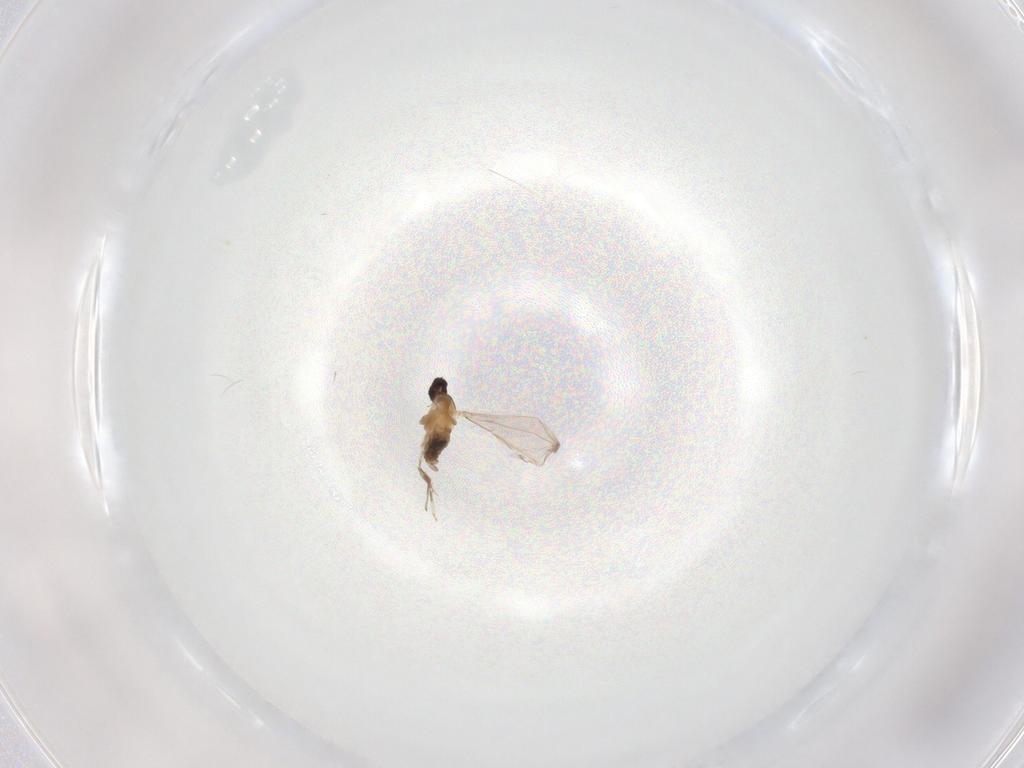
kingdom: Animalia
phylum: Arthropoda
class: Insecta
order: Diptera
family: Chironomidae
